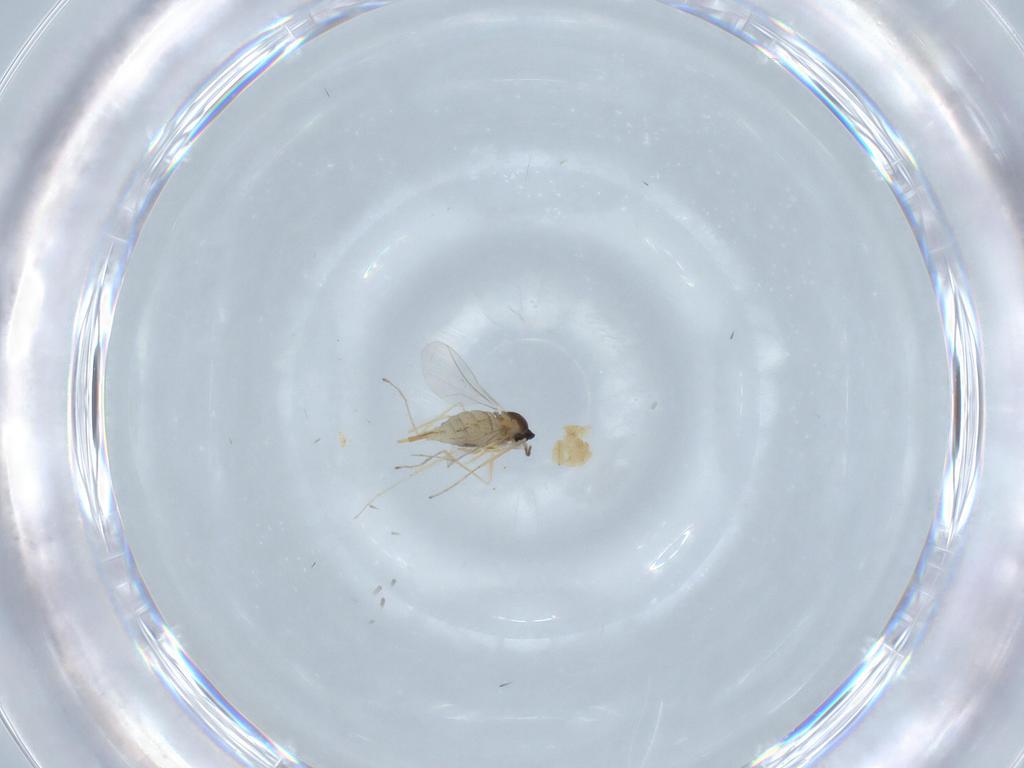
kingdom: Animalia
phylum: Arthropoda
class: Insecta
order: Diptera
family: Cecidomyiidae
